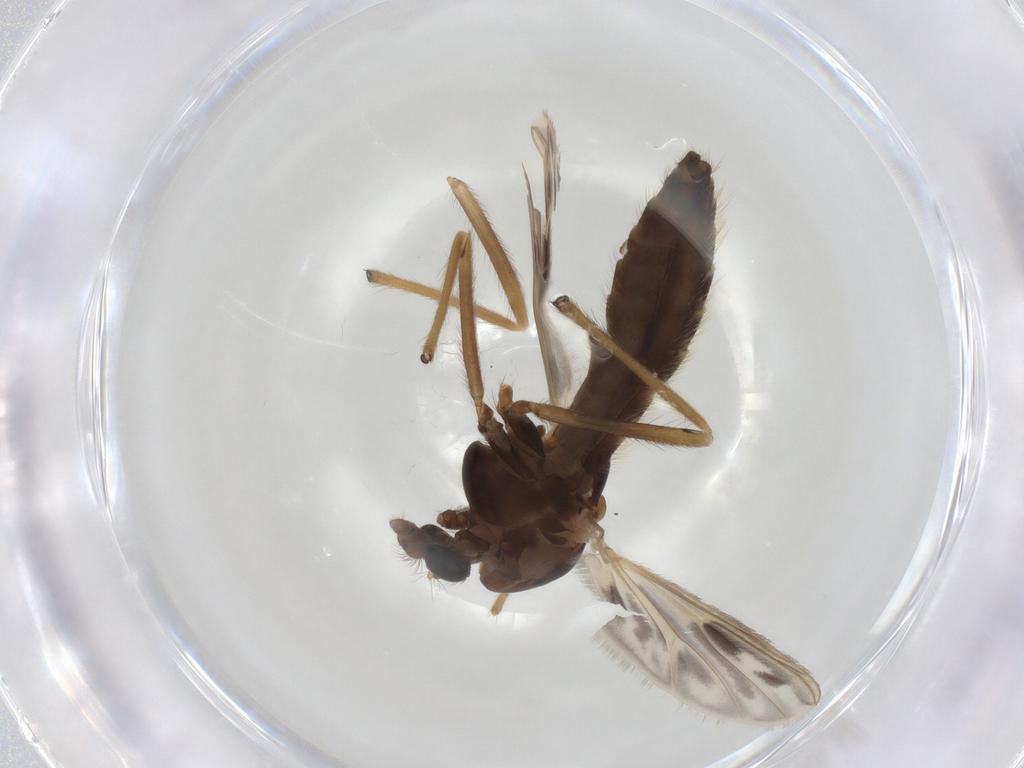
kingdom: Animalia
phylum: Arthropoda
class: Insecta
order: Diptera
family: Chironomidae
